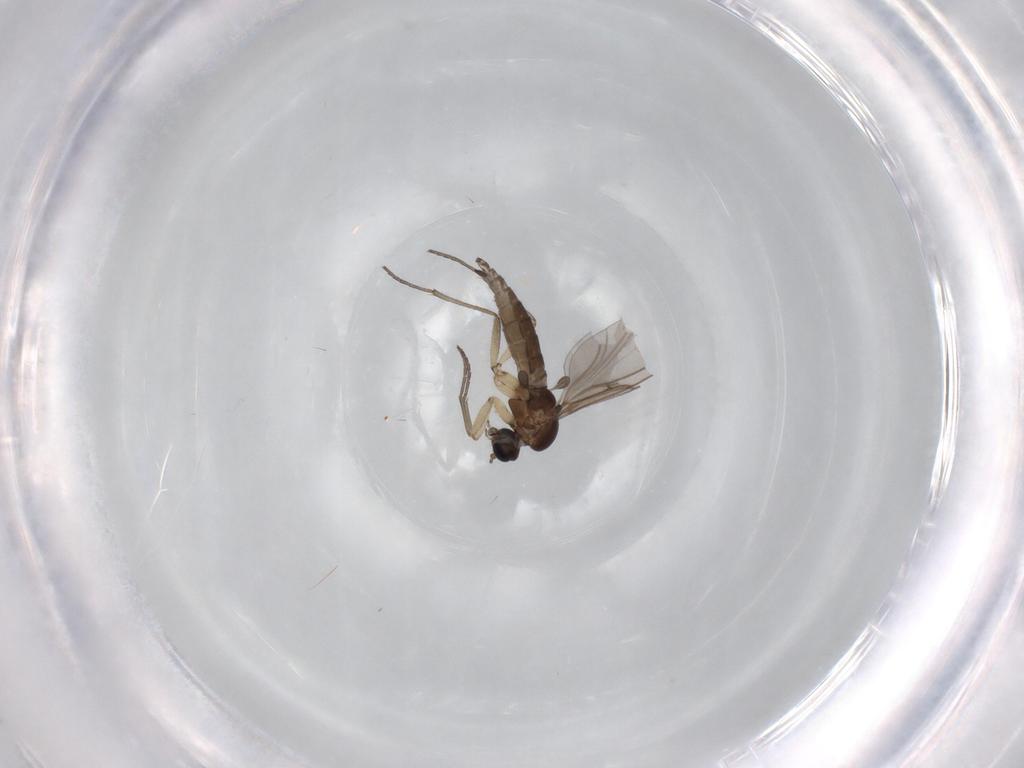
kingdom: Animalia
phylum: Arthropoda
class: Insecta
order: Diptera
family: Sciaridae
